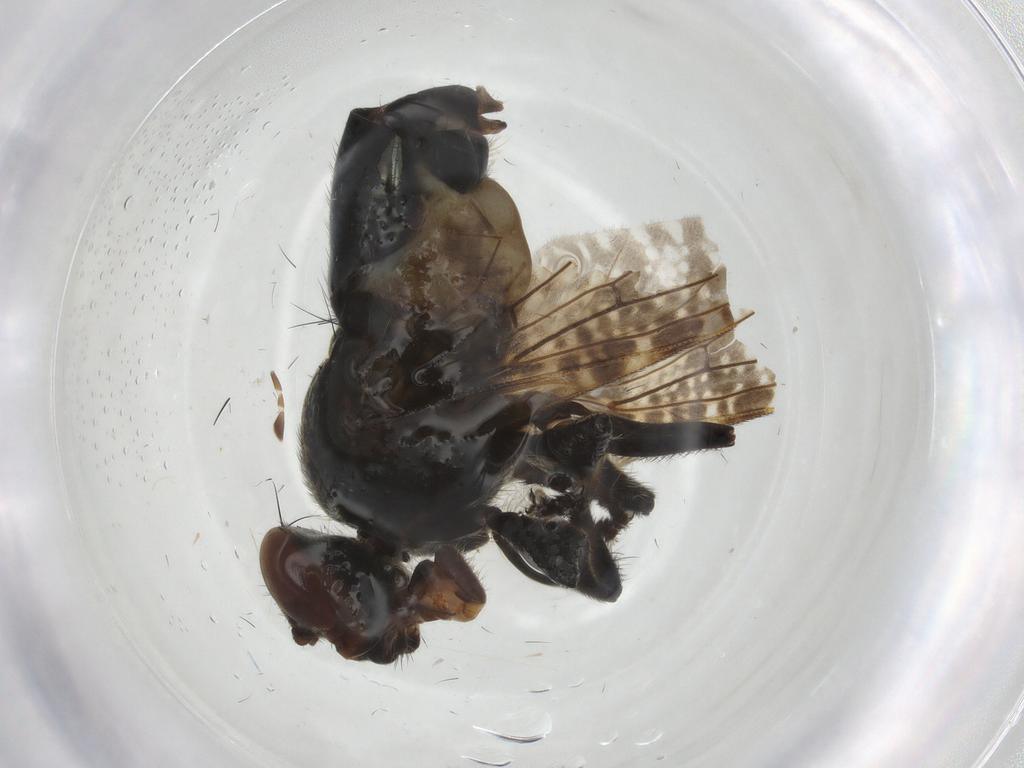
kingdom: Animalia
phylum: Arthropoda
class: Insecta
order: Diptera
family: Platystomatidae
